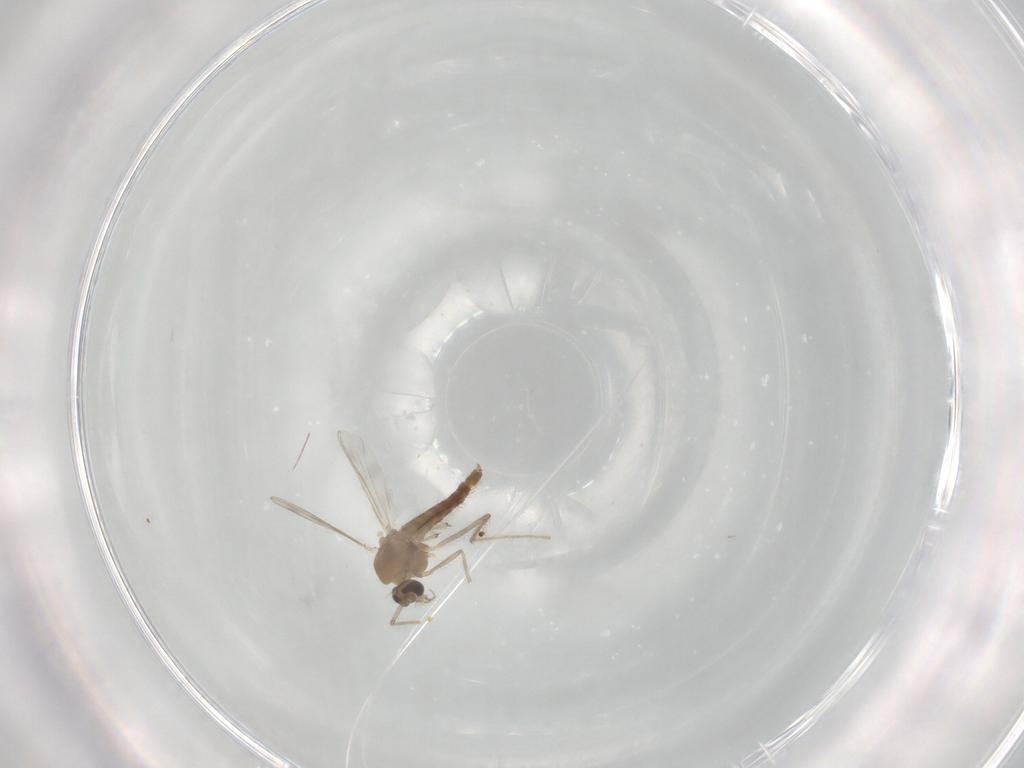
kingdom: Animalia
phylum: Arthropoda
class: Insecta
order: Diptera
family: Chironomidae
